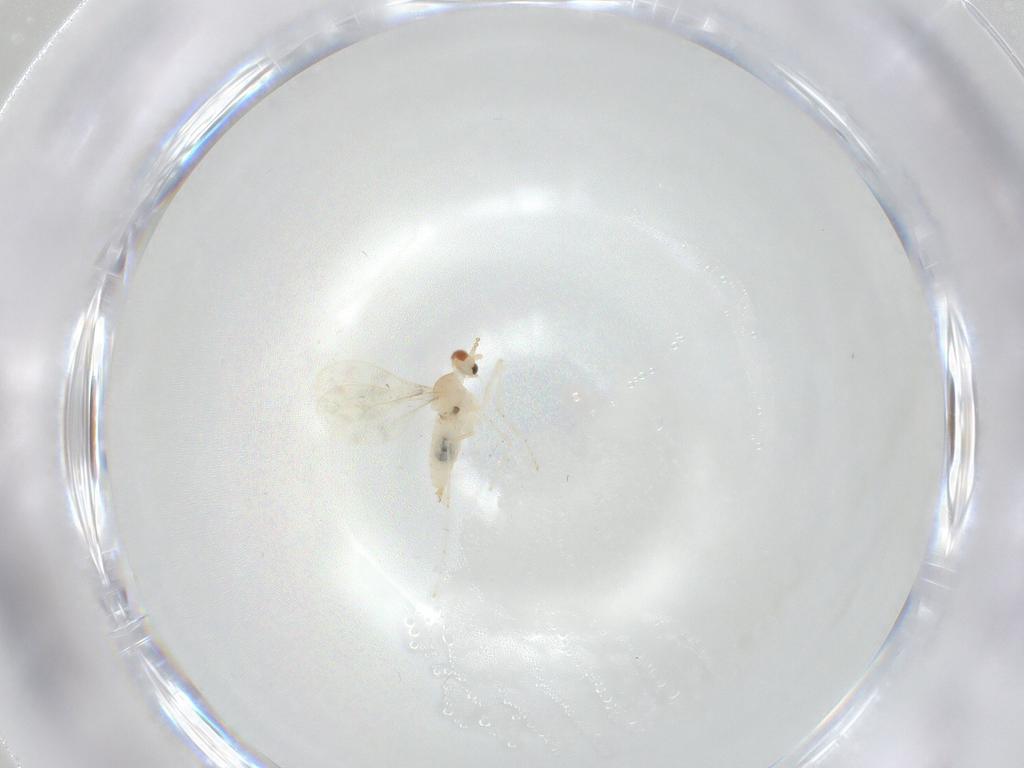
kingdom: Animalia
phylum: Arthropoda
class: Insecta
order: Diptera
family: Cecidomyiidae
